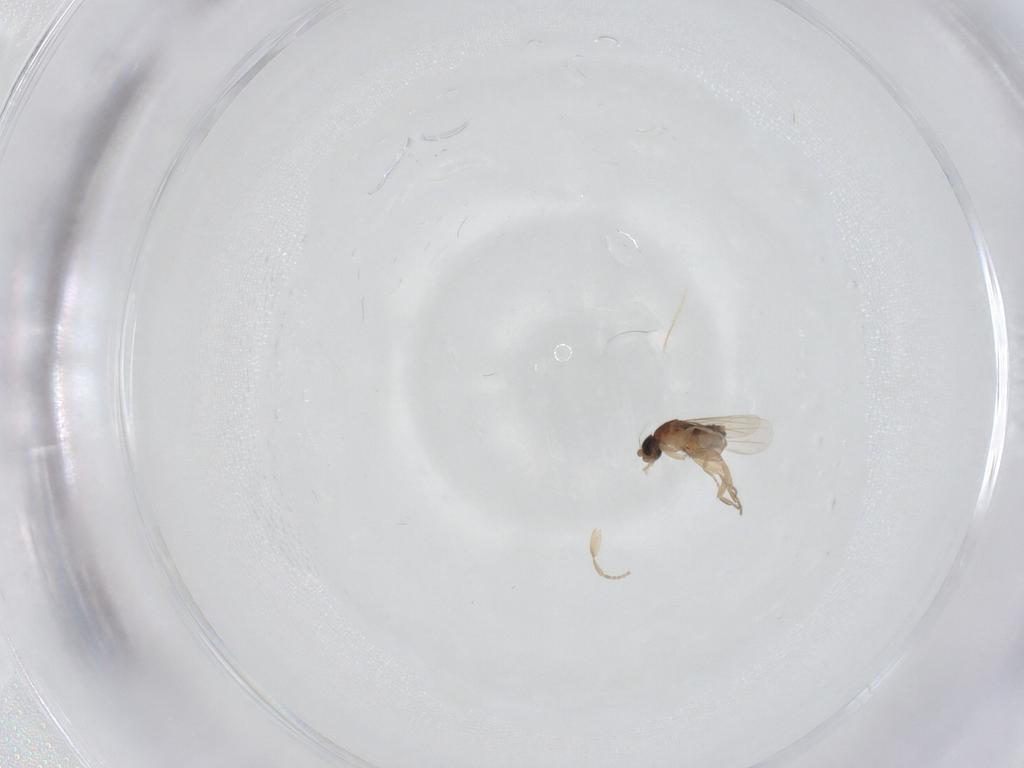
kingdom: Animalia
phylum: Arthropoda
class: Insecta
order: Diptera
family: Phoridae
